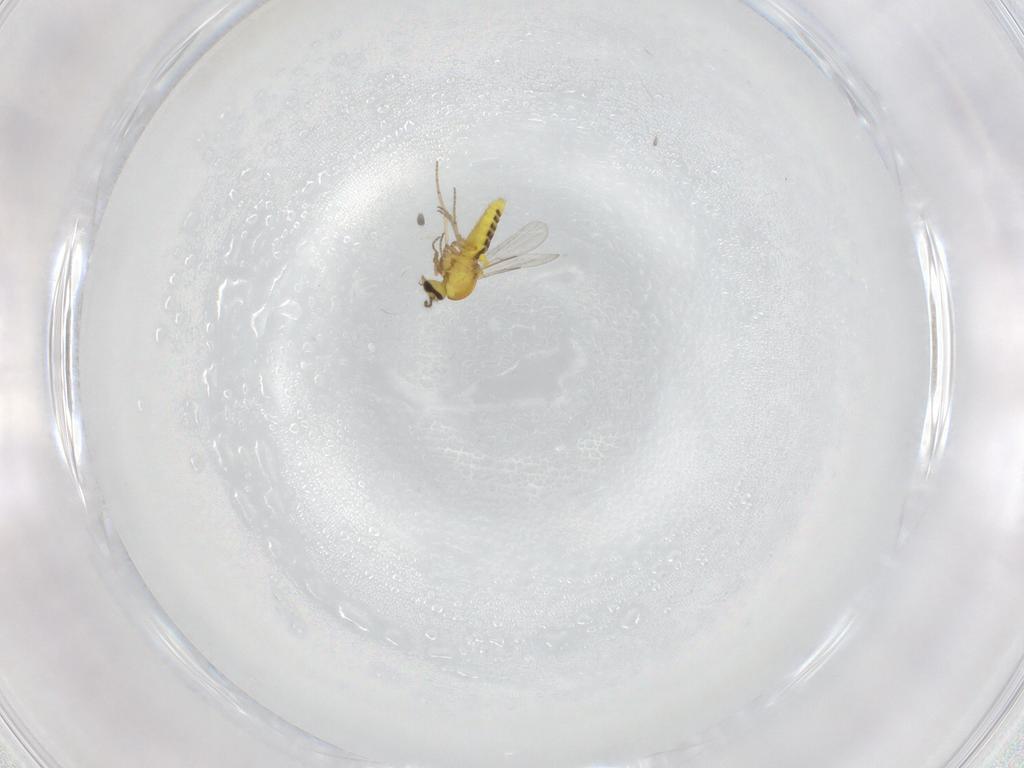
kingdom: Animalia
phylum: Arthropoda
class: Insecta
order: Diptera
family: Ceratopogonidae
